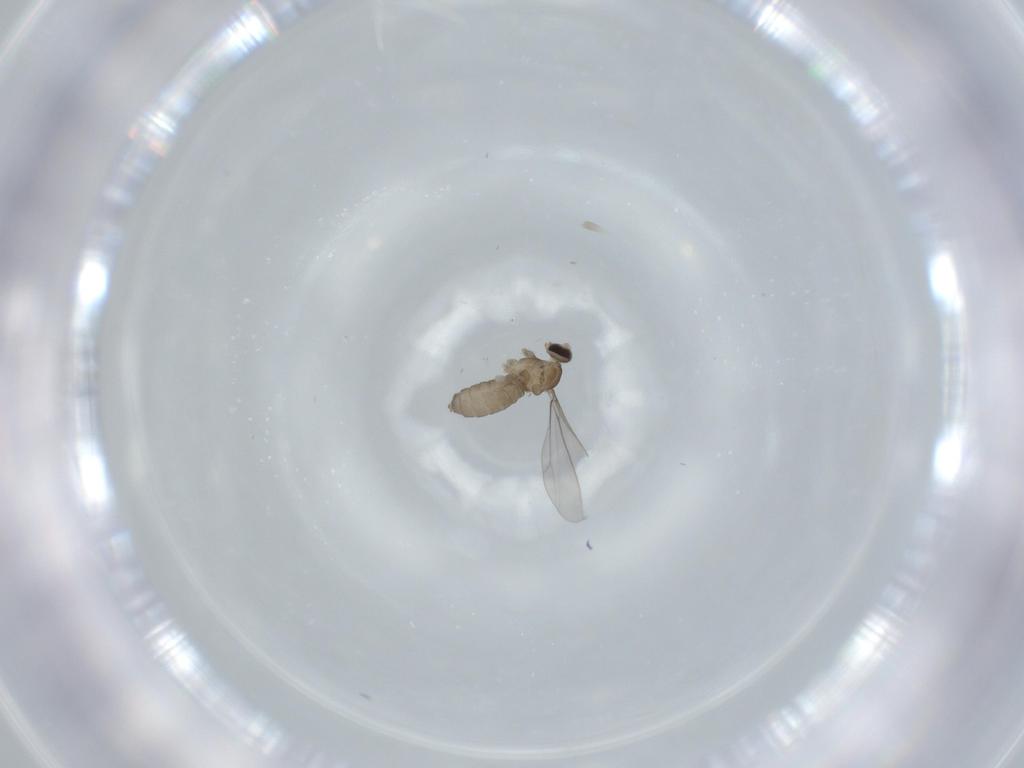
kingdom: Animalia
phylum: Arthropoda
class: Insecta
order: Diptera
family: Cecidomyiidae
